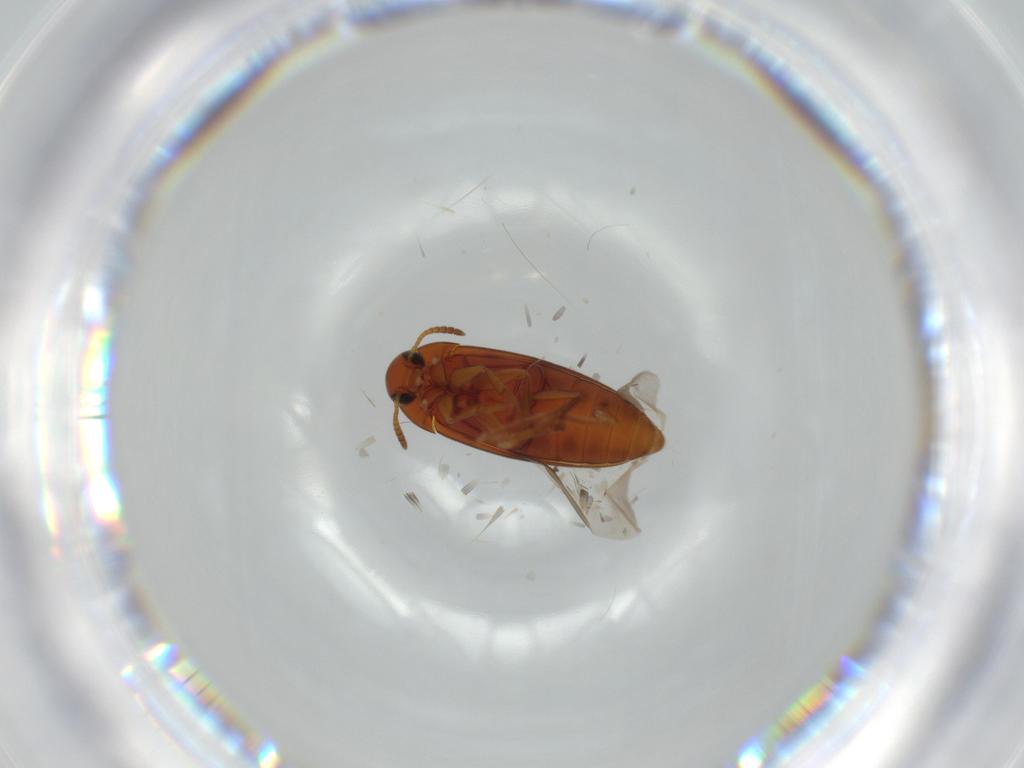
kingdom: Animalia
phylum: Arthropoda
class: Insecta
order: Coleoptera
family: Scraptiidae
